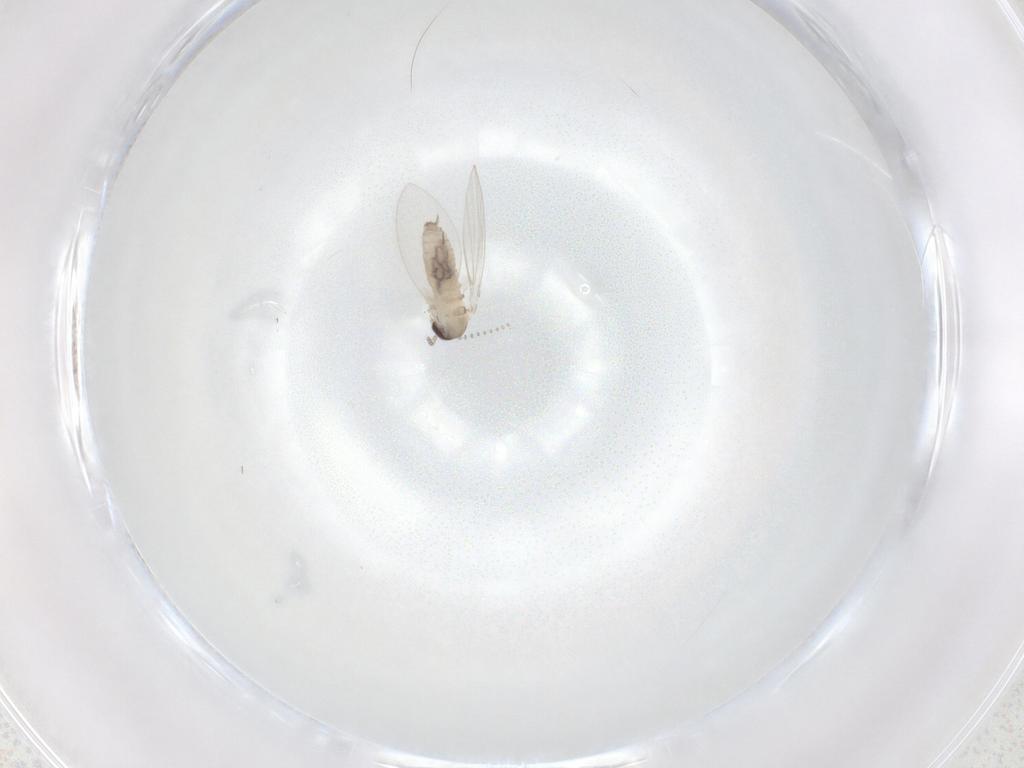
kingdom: Animalia
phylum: Arthropoda
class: Insecta
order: Diptera
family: Psychodidae
